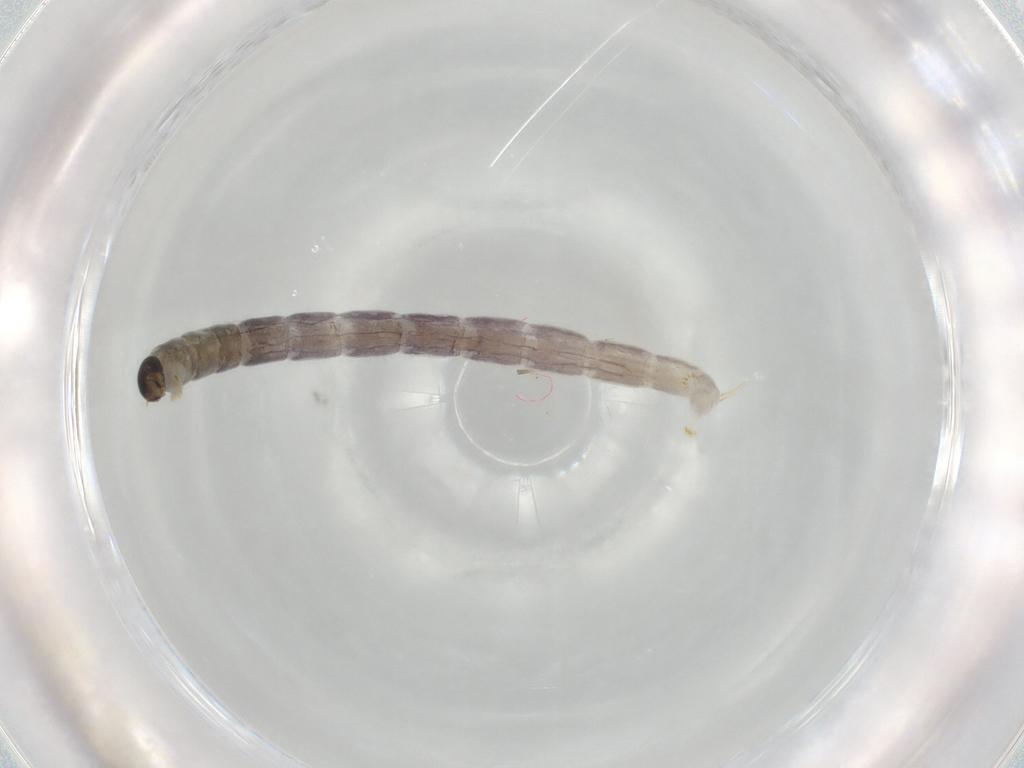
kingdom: Animalia
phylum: Arthropoda
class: Insecta
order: Diptera
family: Chironomidae
